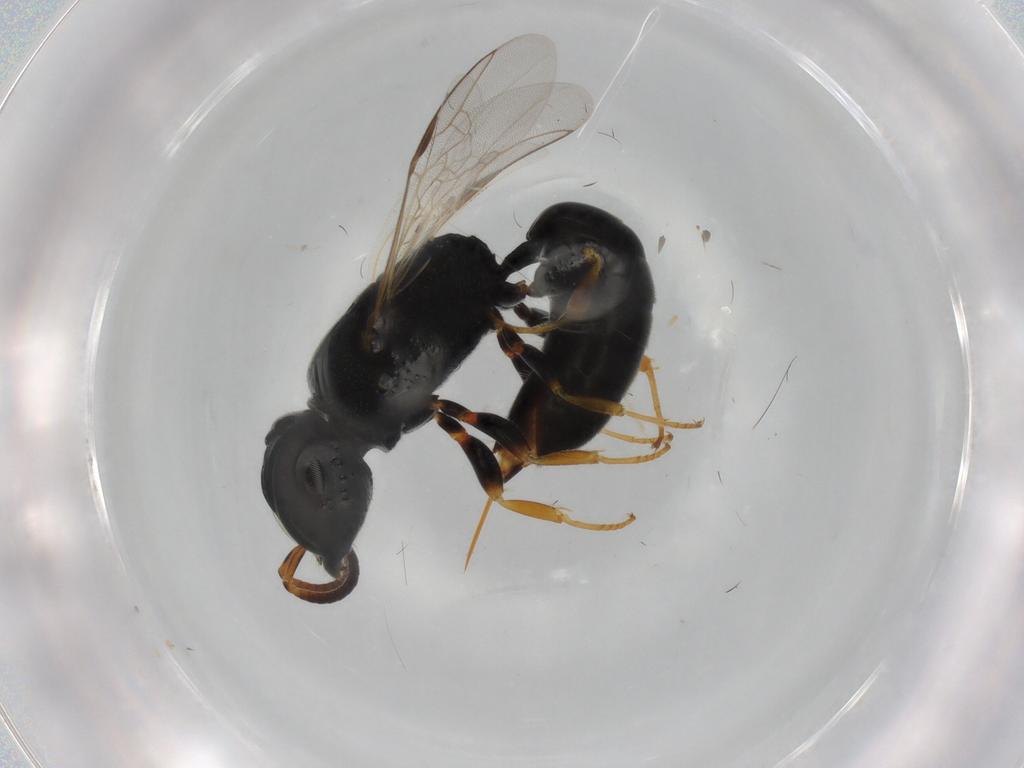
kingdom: Animalia
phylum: Arthropoda
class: Insecta
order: Hymenoptera
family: Crabronidae
